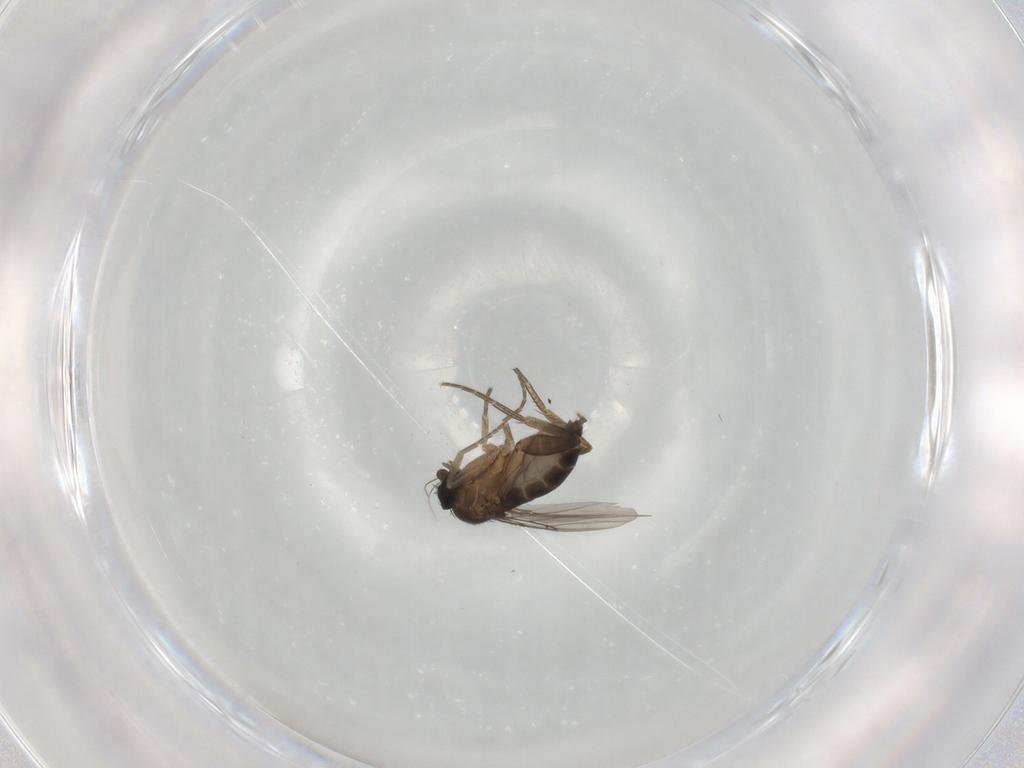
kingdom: Animalia
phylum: Arthropoda
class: Insecta
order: Diptera
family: Phoridae
